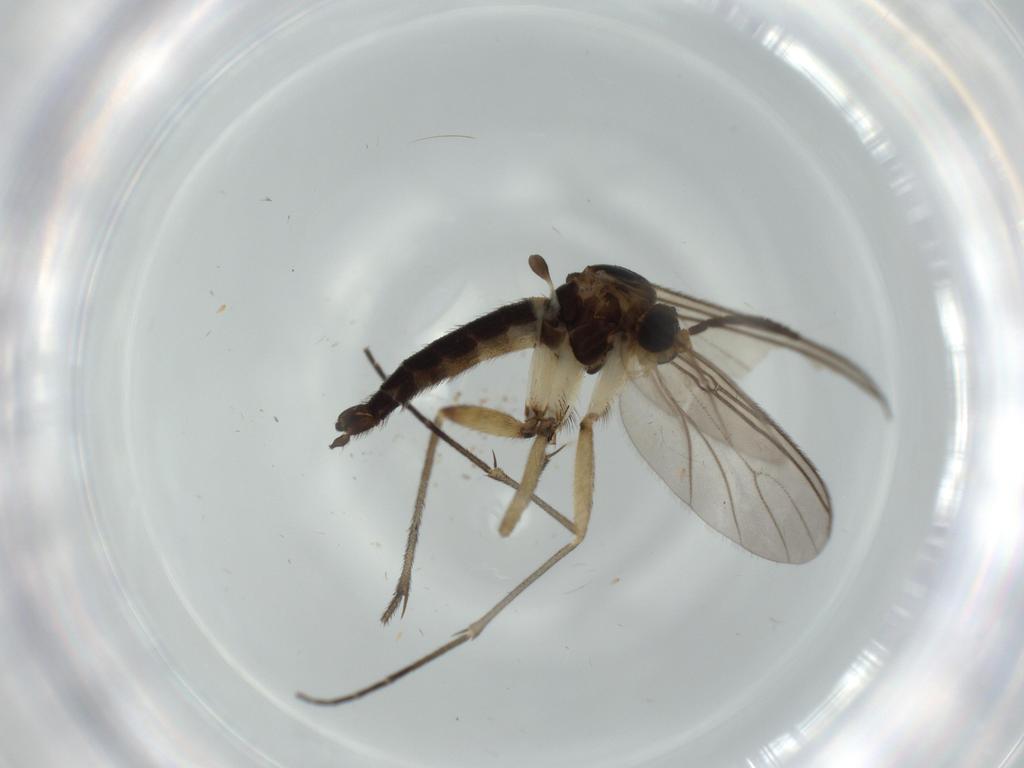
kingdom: Animalia
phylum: Arthropoda
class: Insecta
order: Diptera
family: Sciaridae
